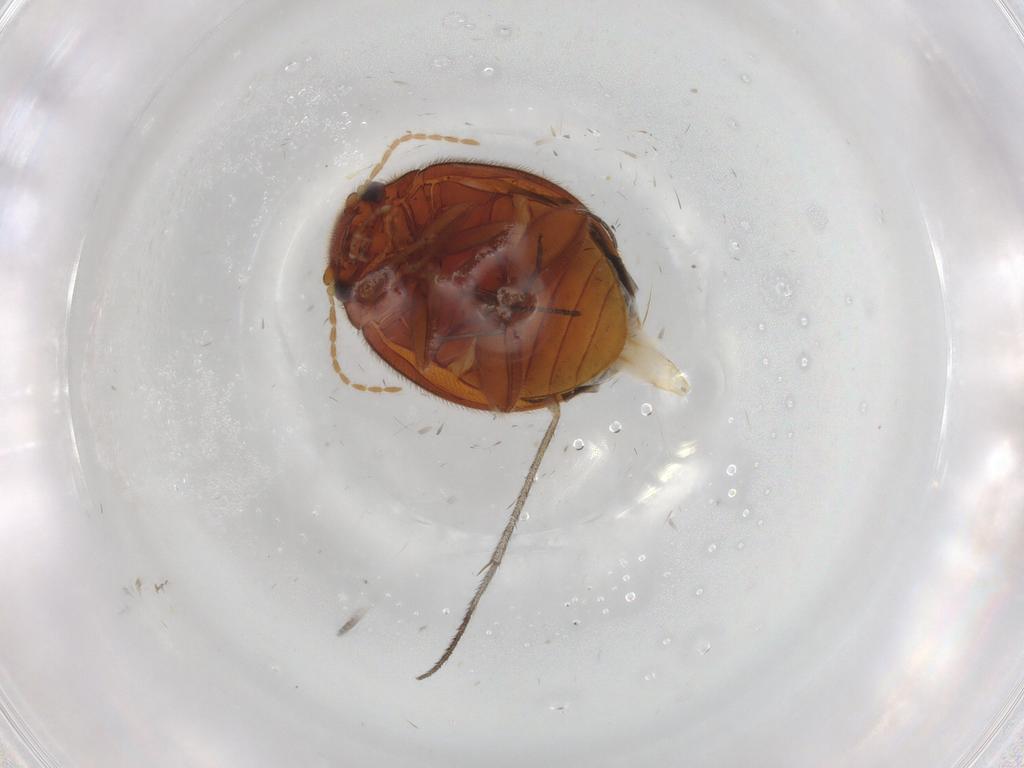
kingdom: Animalia
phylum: Arthropoda
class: Insecta
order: Coleoptera
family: Scirtidae
